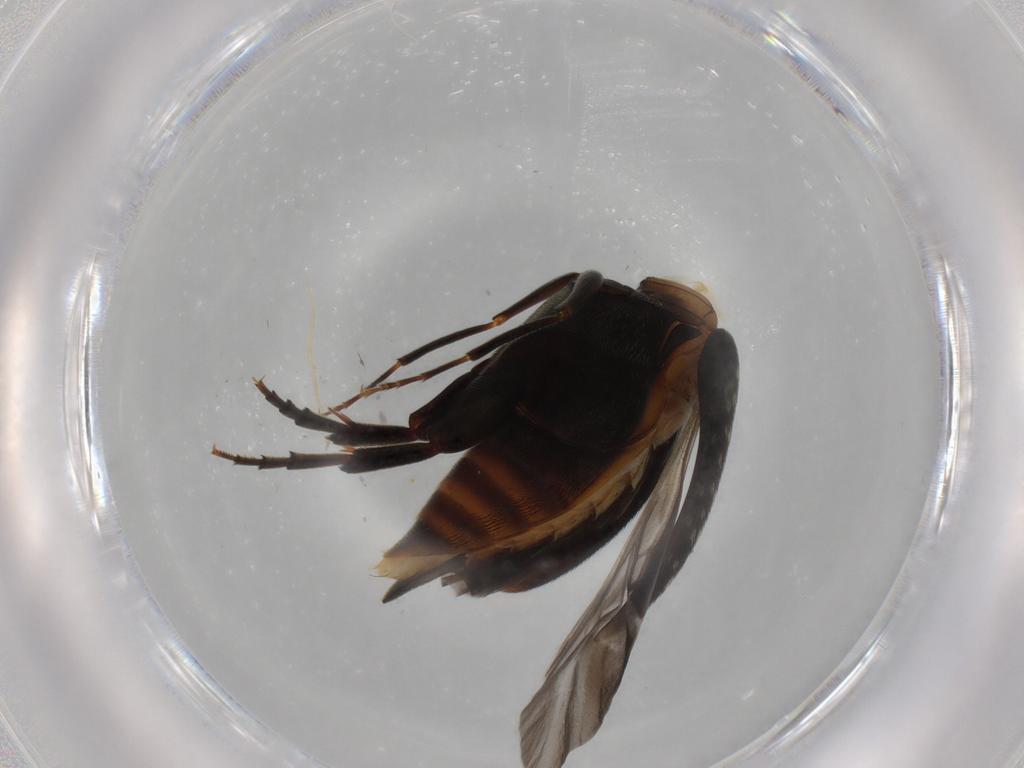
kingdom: Animalia
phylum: Arthropoda
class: Insecta
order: Coleoptera
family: Mordellidae
